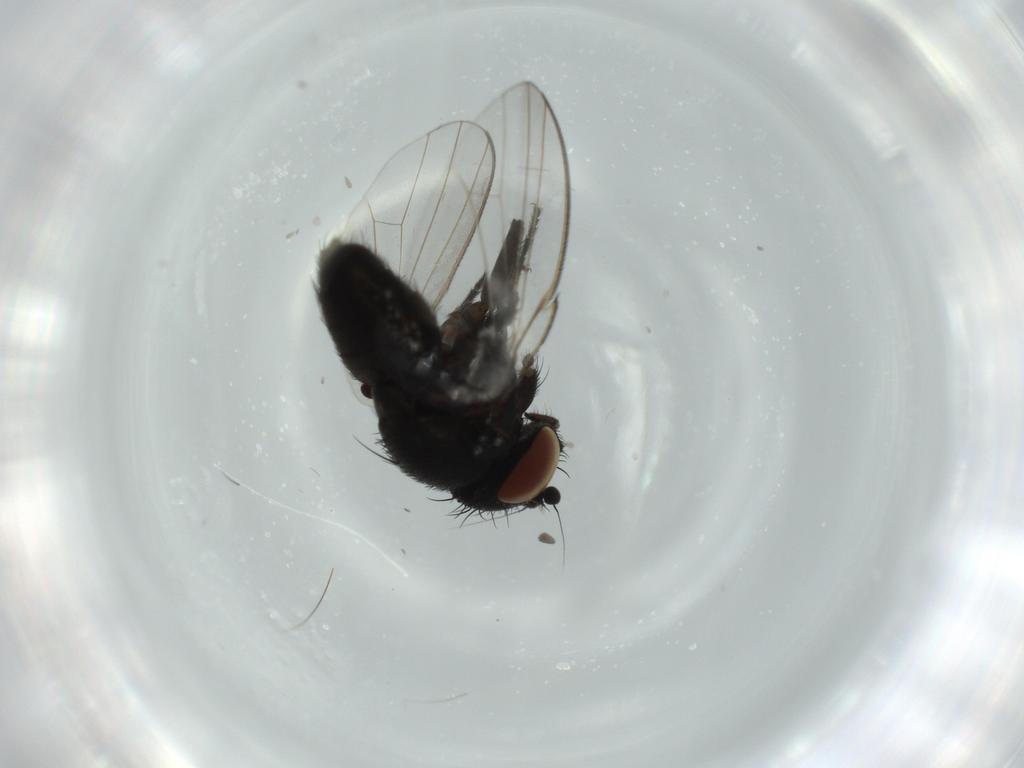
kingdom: Animalia
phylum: Arthropoda
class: Insecta
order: Diptera
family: Milichiidae
